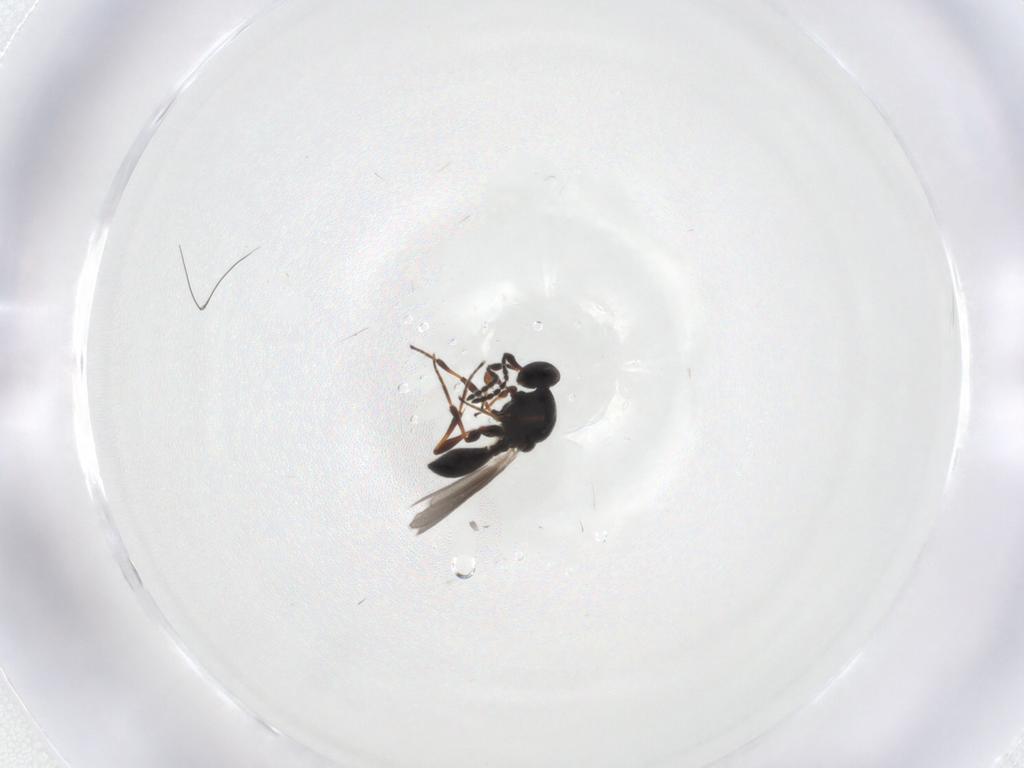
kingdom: Animalia
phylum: Arthropoda
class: Insecta
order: Hymenoptera
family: Platygastridae
